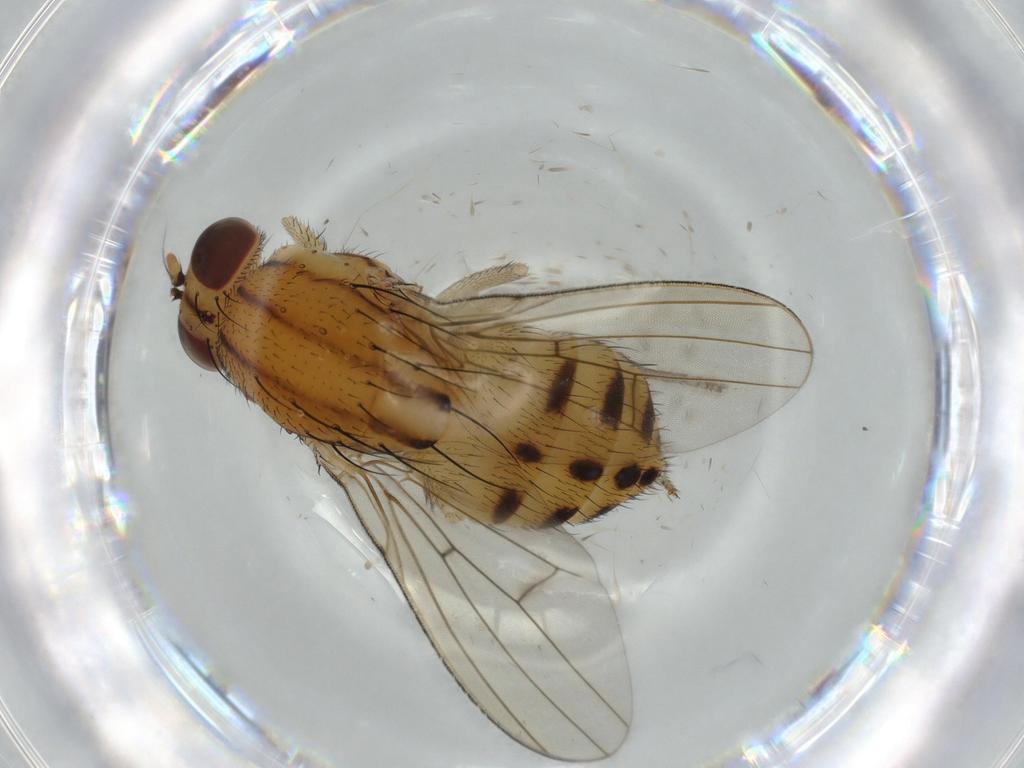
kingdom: Animalia
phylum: Arthropoda
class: Insecta
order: Diptera
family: Lauxaniidae
